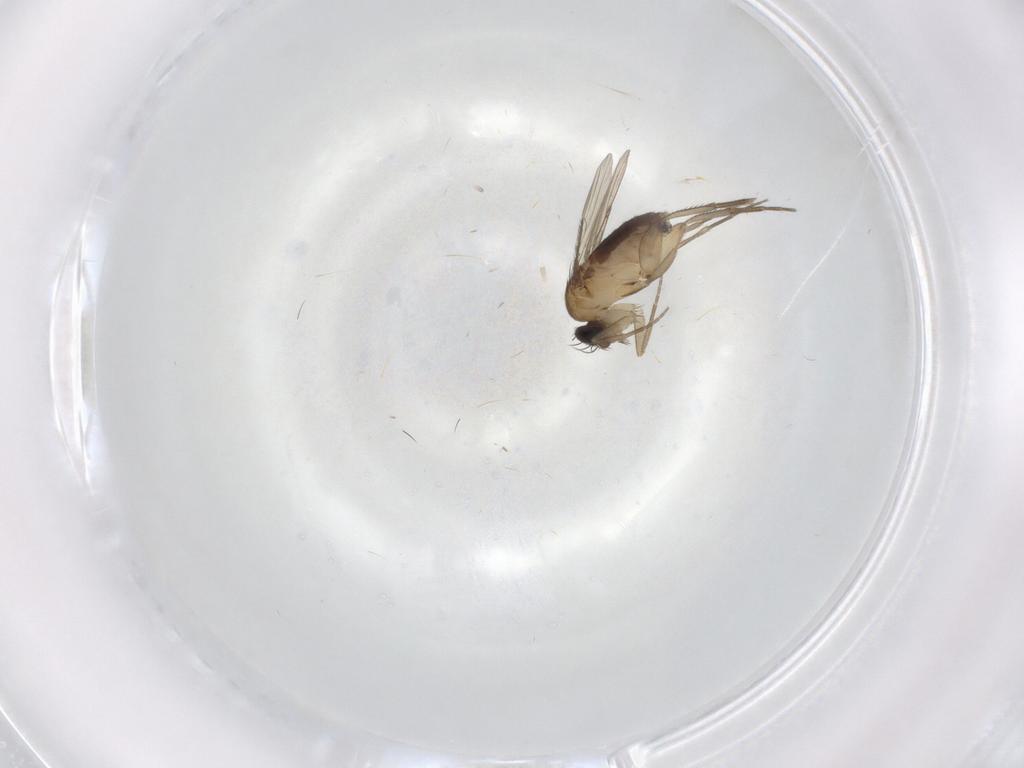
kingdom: Animalia
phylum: Arthropoda
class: Insecta
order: Diptera
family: Phoridae
